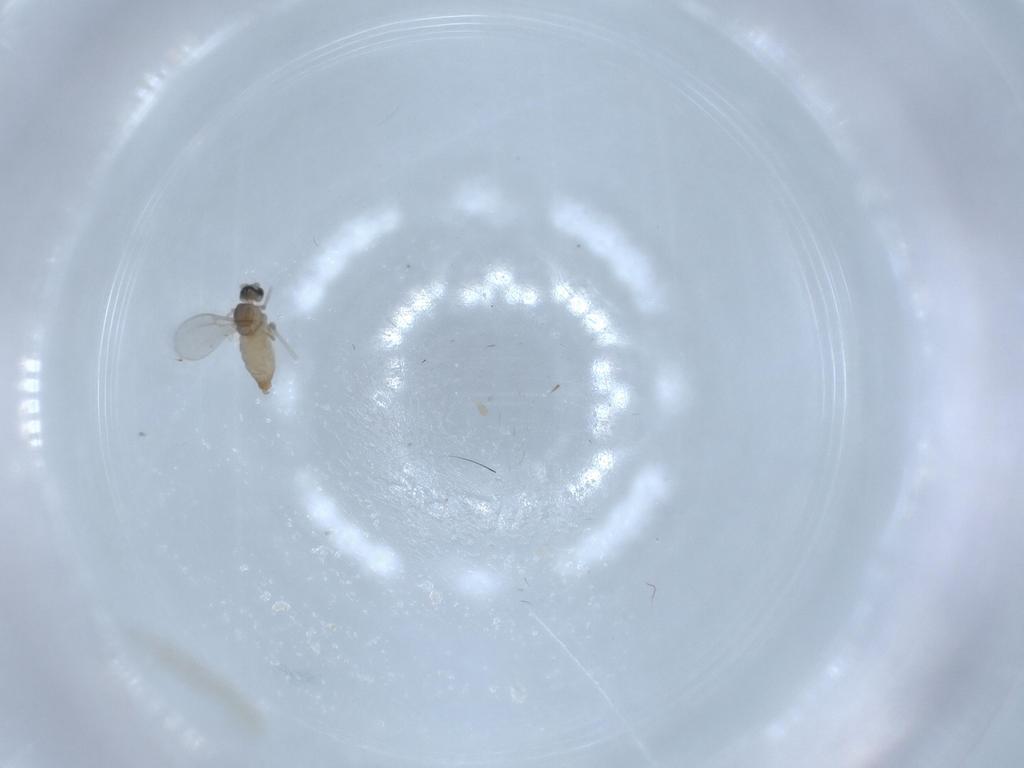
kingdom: Animalia
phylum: Arthropoda
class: Insecta
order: Diptera
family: Cecidomyiidae
